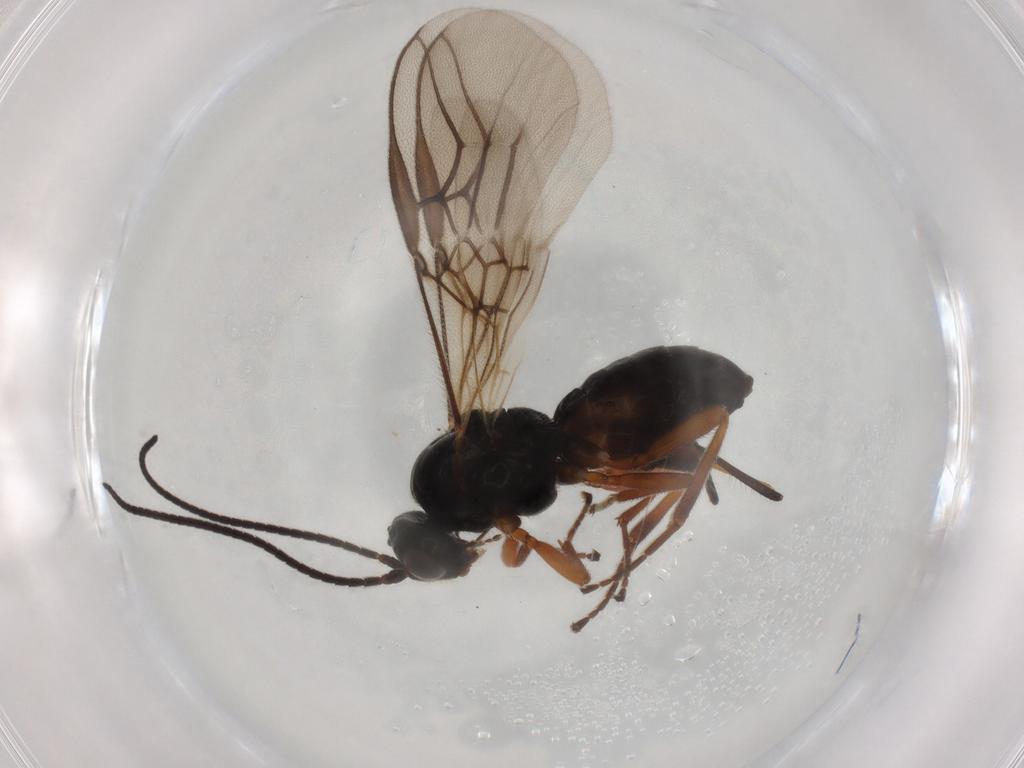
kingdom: Animalia
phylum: Arthropoda
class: Insecta
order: Hymenoptera
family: Braconidae
